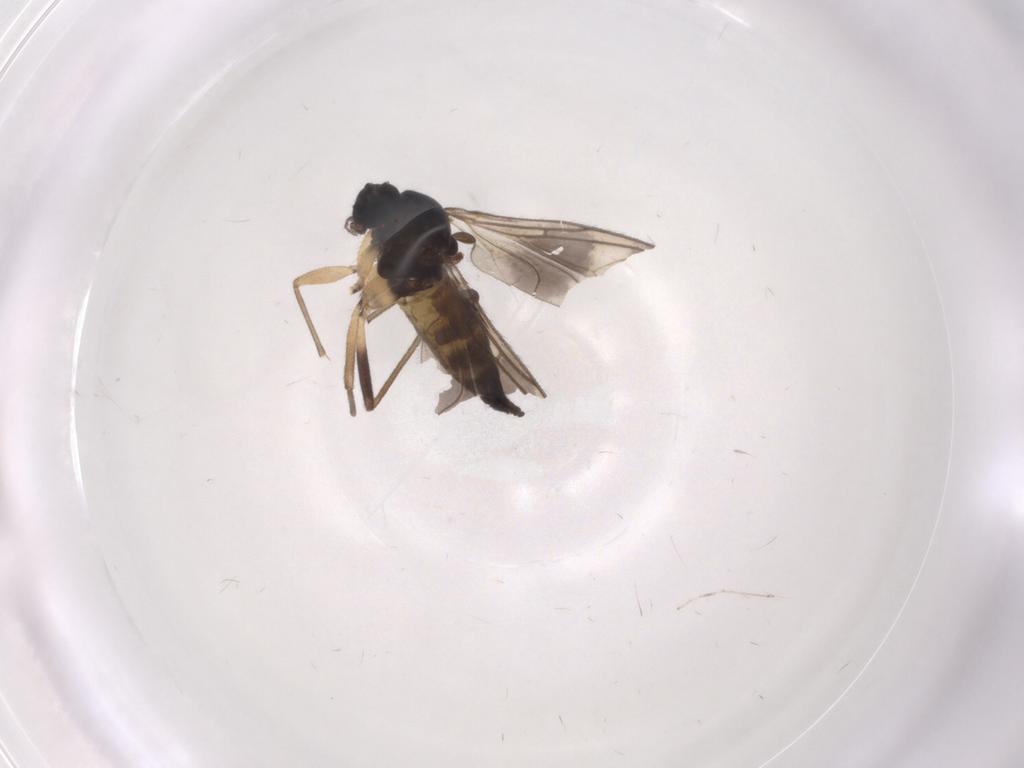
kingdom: Animalia
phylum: Arthropoda
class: Insecta
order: Diptera
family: Sciaridae
